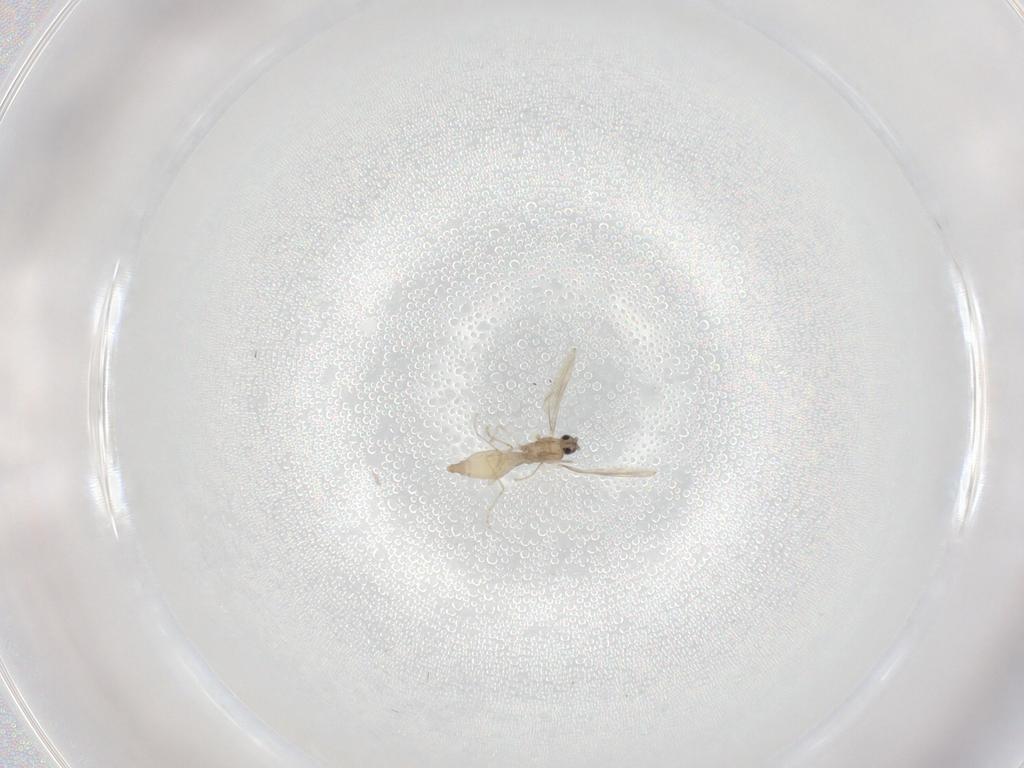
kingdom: Animalia
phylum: Arthropoda
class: Insecta
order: Diptera
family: Cecidomyiidae
